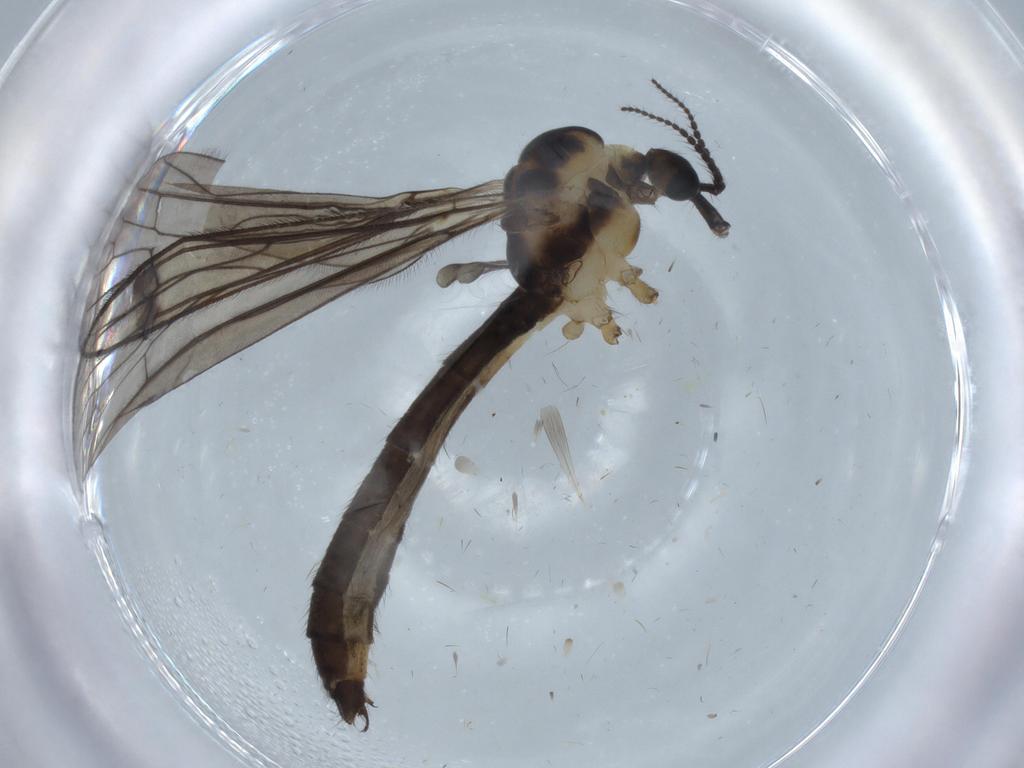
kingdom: Animalia
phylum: Arthropoda
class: Insecta
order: Diptera
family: Limoniidae
